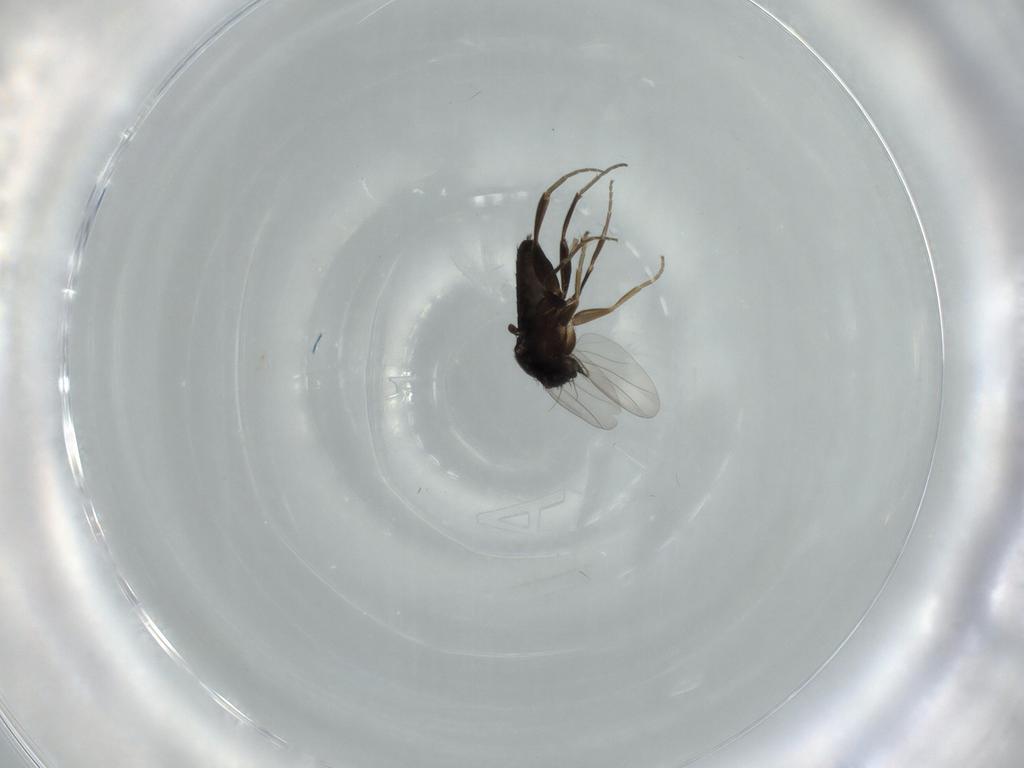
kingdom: Animalia
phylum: Arthropoda
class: Insecta
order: Diptera
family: Phoridae
